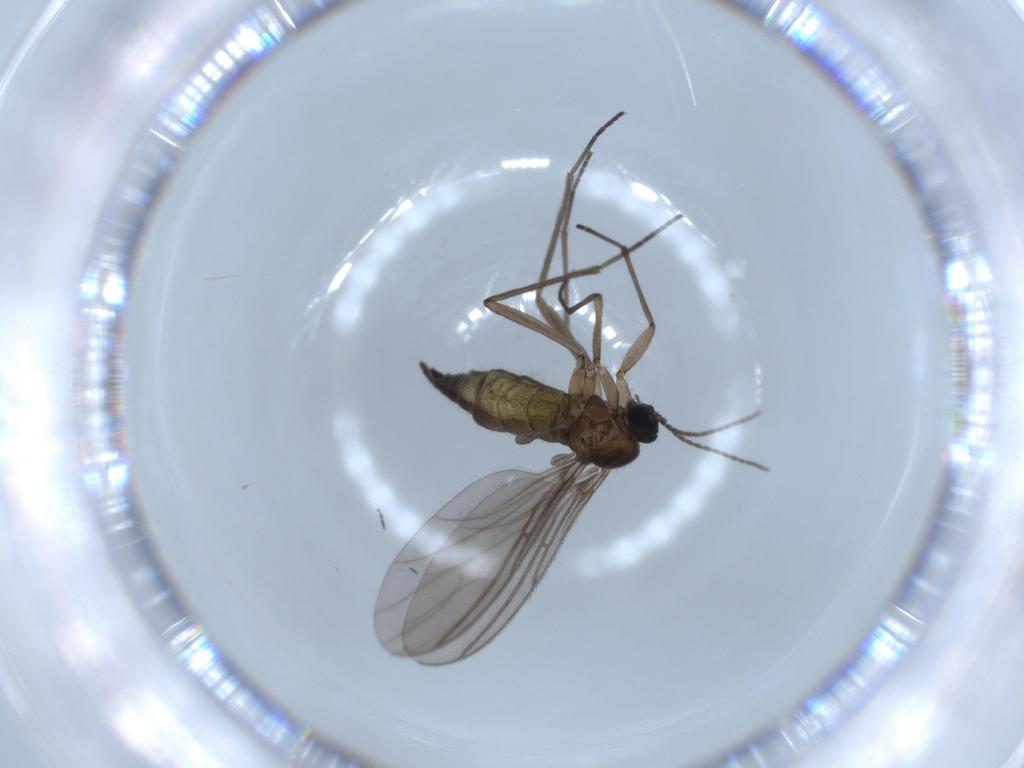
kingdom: Animalia
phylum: Arthropoda
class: Insecta
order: Diptera
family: Sciaridae
